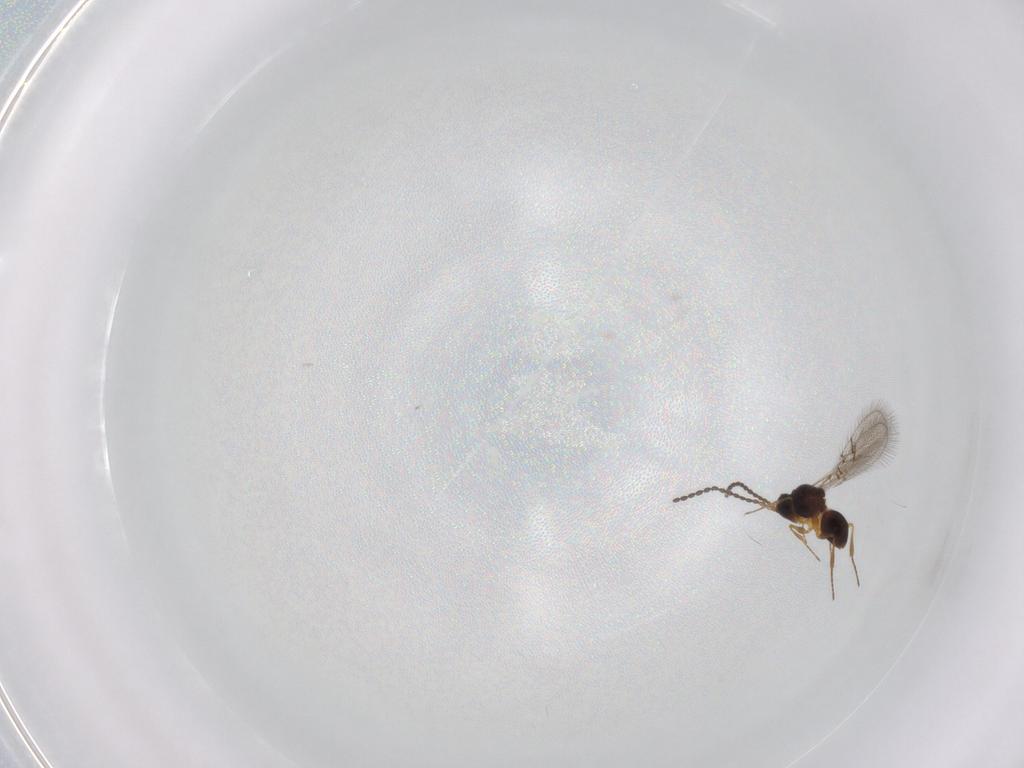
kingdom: Animalia
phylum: Arthropoda
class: Insecta
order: Hymenoptera
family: Figitidae
